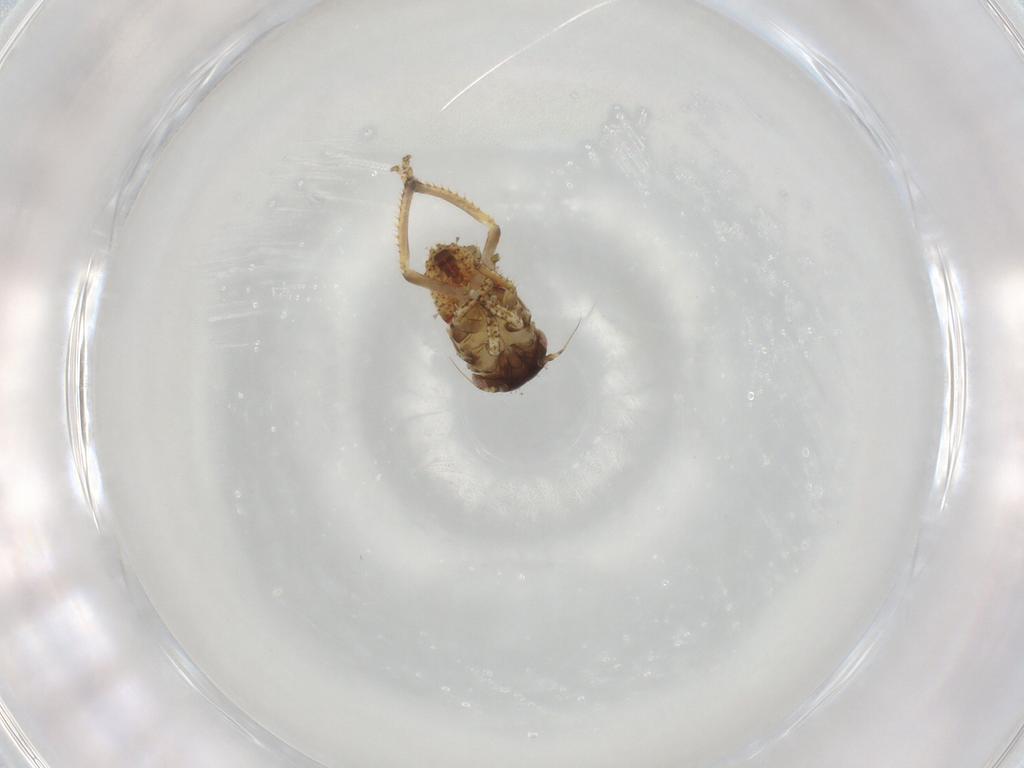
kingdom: Animalia
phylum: Arthropoda
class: Insecta
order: Hemiptera
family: Cicadellidae
